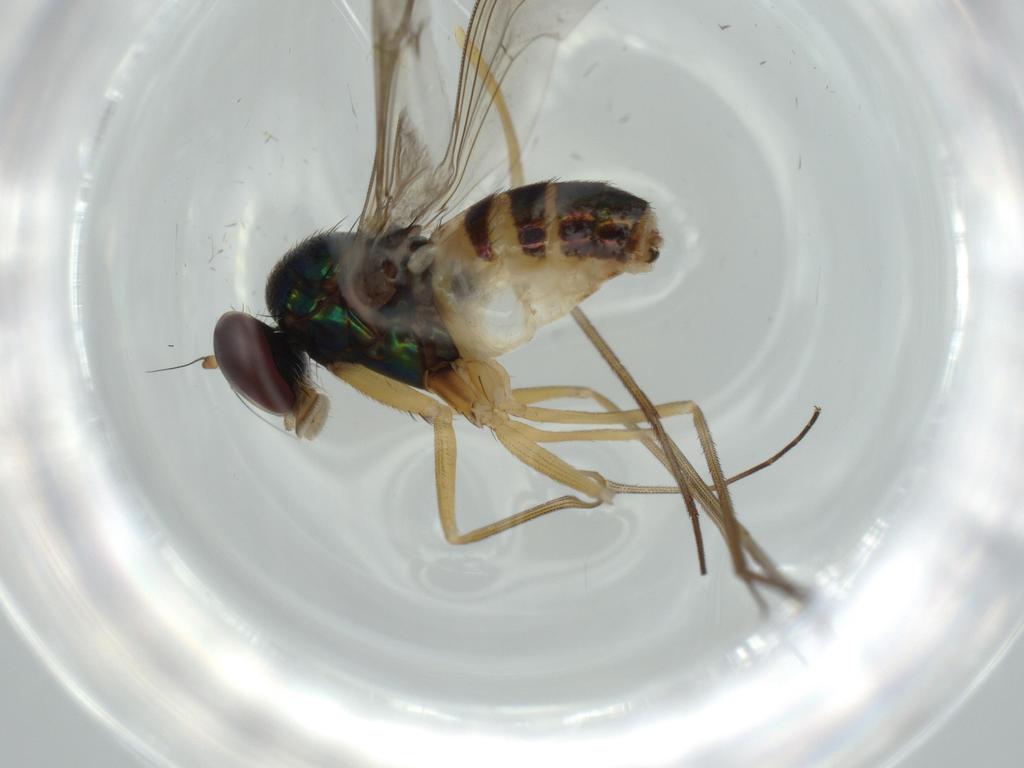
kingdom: Animalia
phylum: Arthropoda
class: Insecta
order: Diptera
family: Dolichopodidae
